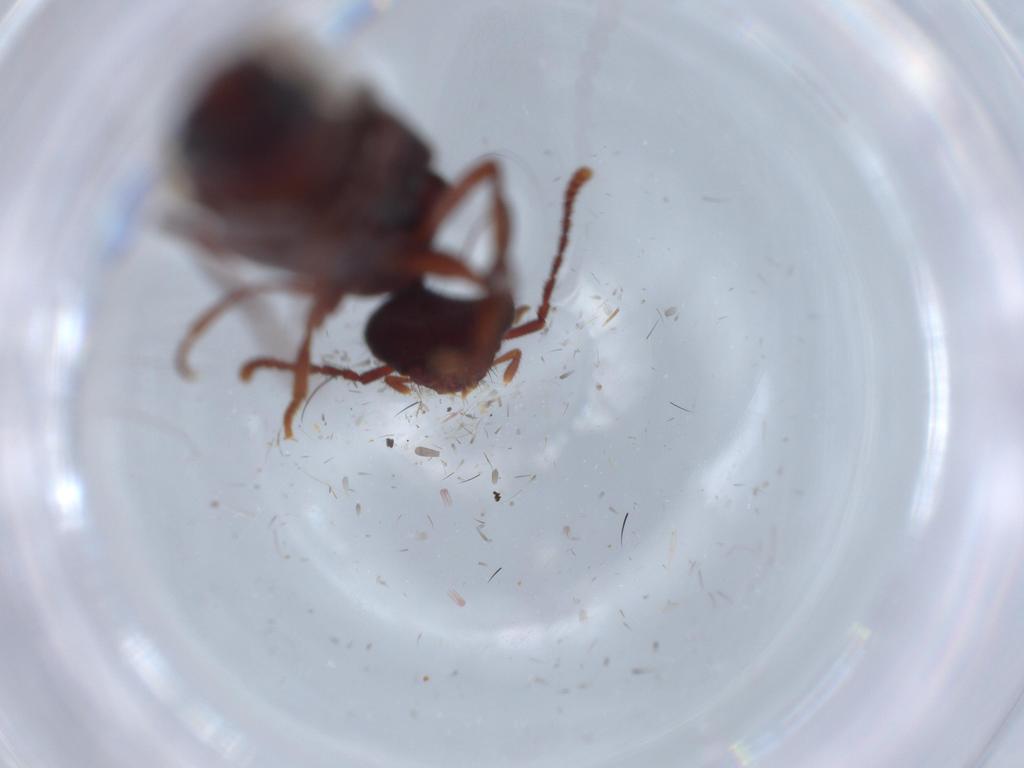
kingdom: Animalia
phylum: Arthropoda
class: Insecta
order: Coleoptera
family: Coccinellidae
